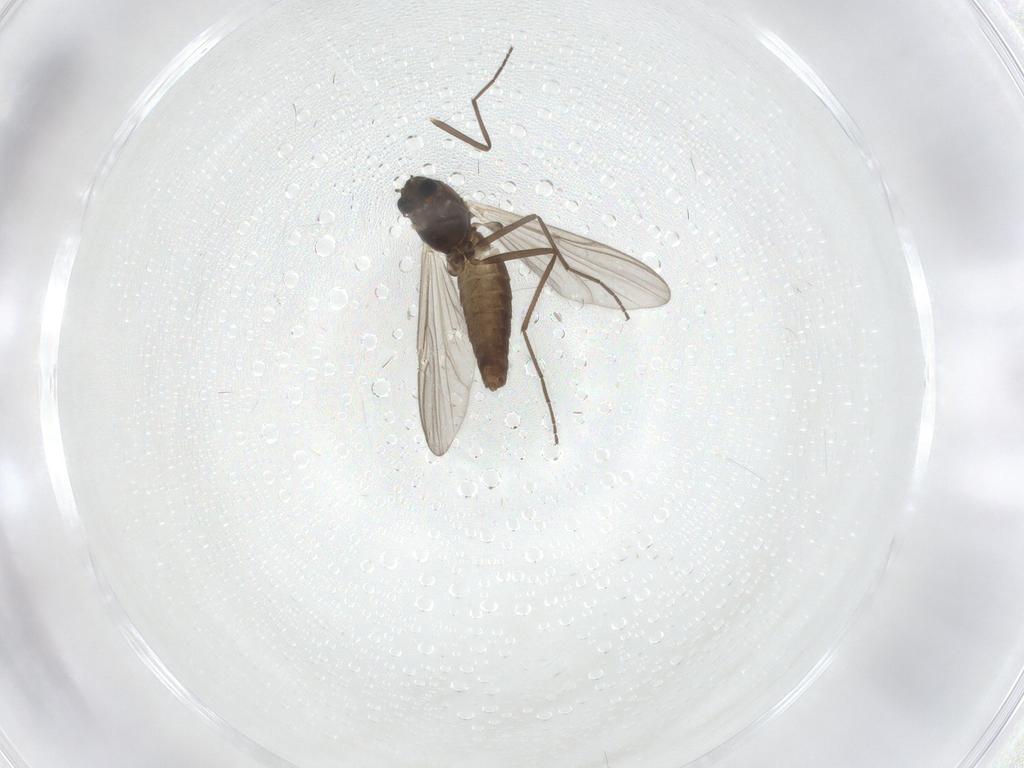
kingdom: Animalia
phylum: Arthropoda
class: Insecta
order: Diptera
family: Chironomidae
